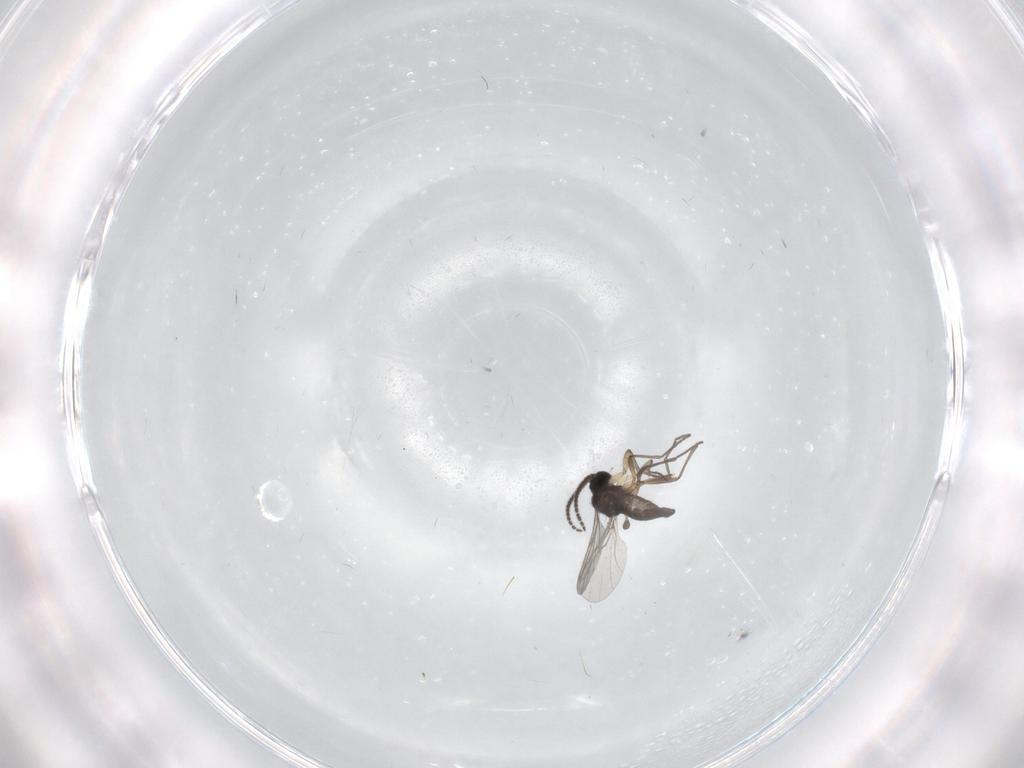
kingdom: Animalia
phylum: Arthropoda
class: Insecta
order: Diptera
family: Sciaridae
